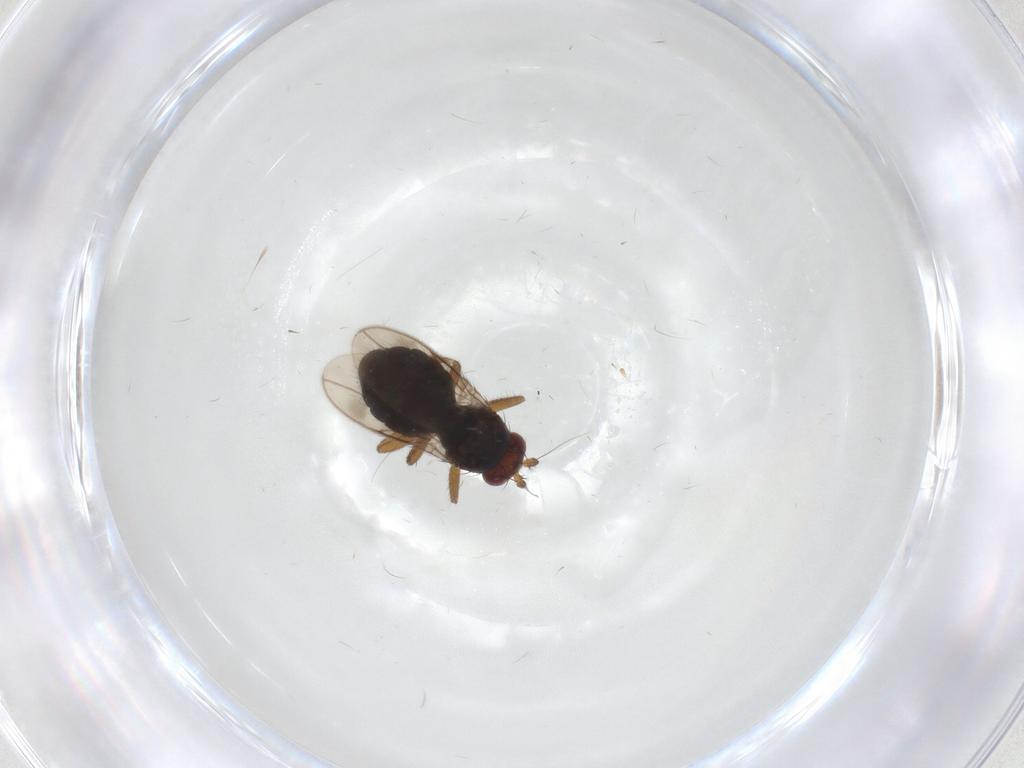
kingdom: Animalia
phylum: Arthropoda
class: Insecta
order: Diptera
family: Sphaeroceridae
